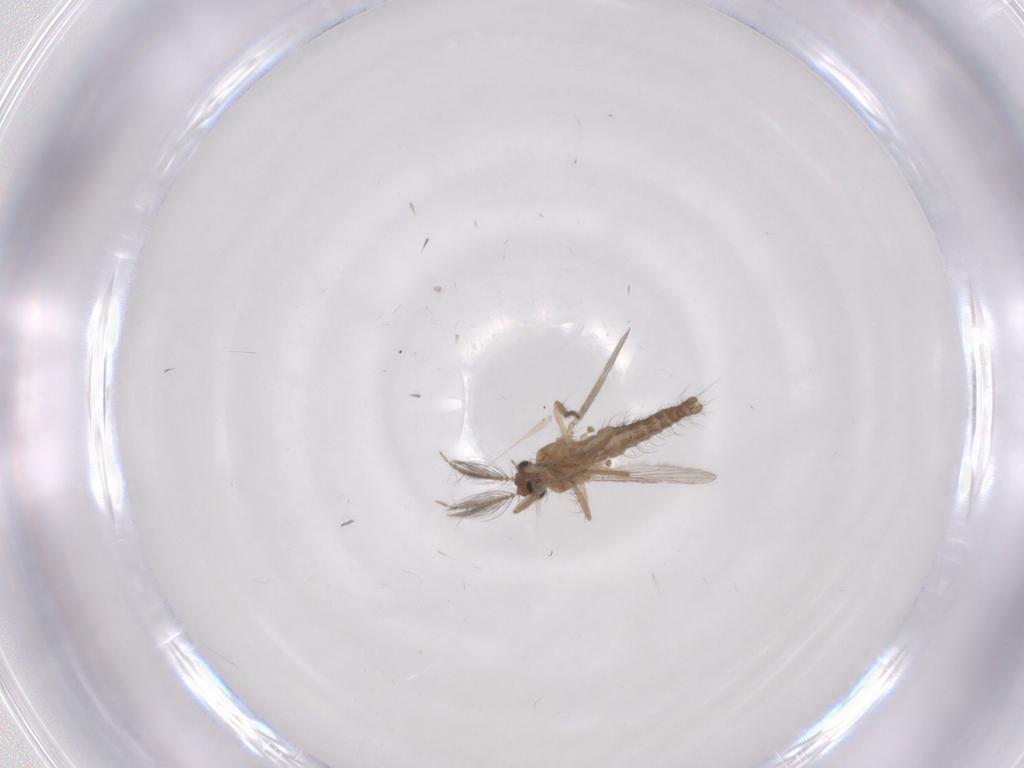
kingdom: Animalia
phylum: Arthropoda
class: Insecta
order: Diptera
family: Ceratopogonidae
